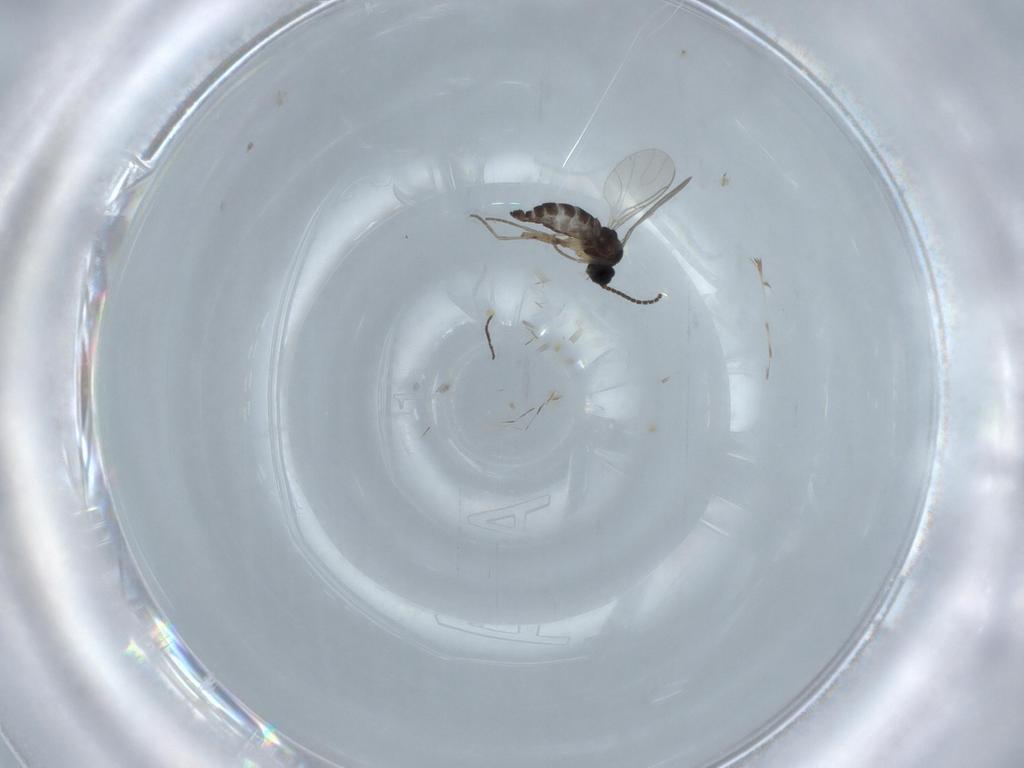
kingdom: Animalia
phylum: Arthropoda
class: Insecta
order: Diptera
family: Sciaridae
